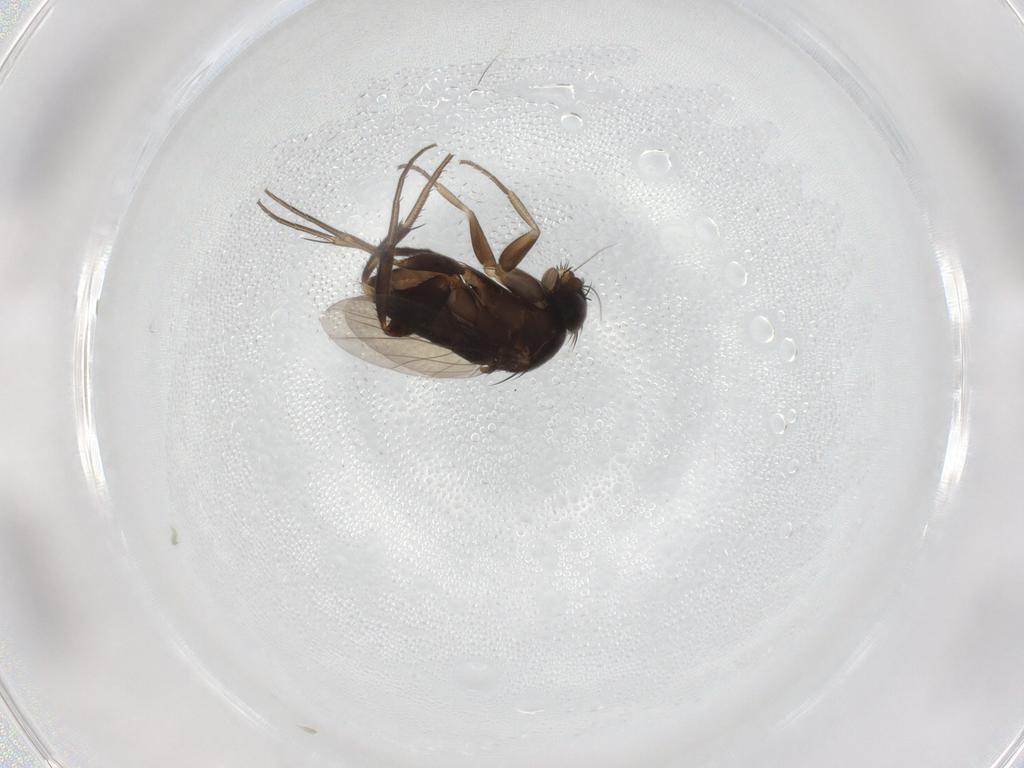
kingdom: Animalia
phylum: Arthropoda
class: Insecta
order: Diptera
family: Phoridae
